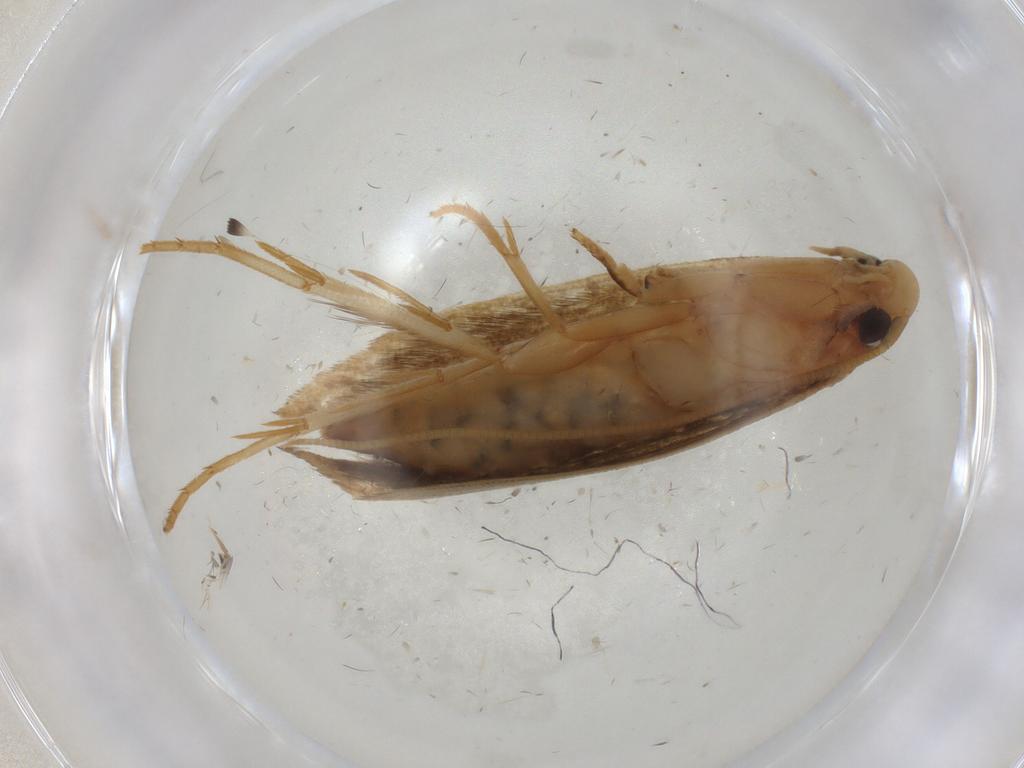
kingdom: Animalia
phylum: Arthropoda
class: Insecta
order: Lepidoptera
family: Tineidae
